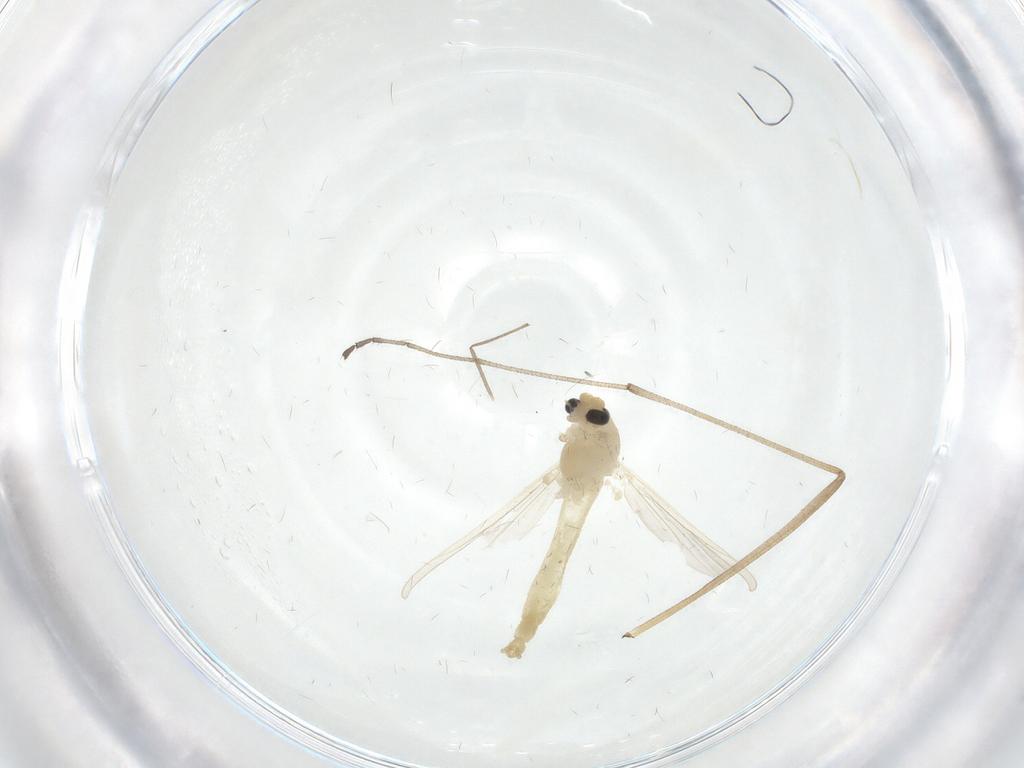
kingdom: Animalia
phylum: Arthropoda
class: Insecta
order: Diptera
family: Chironomidae
